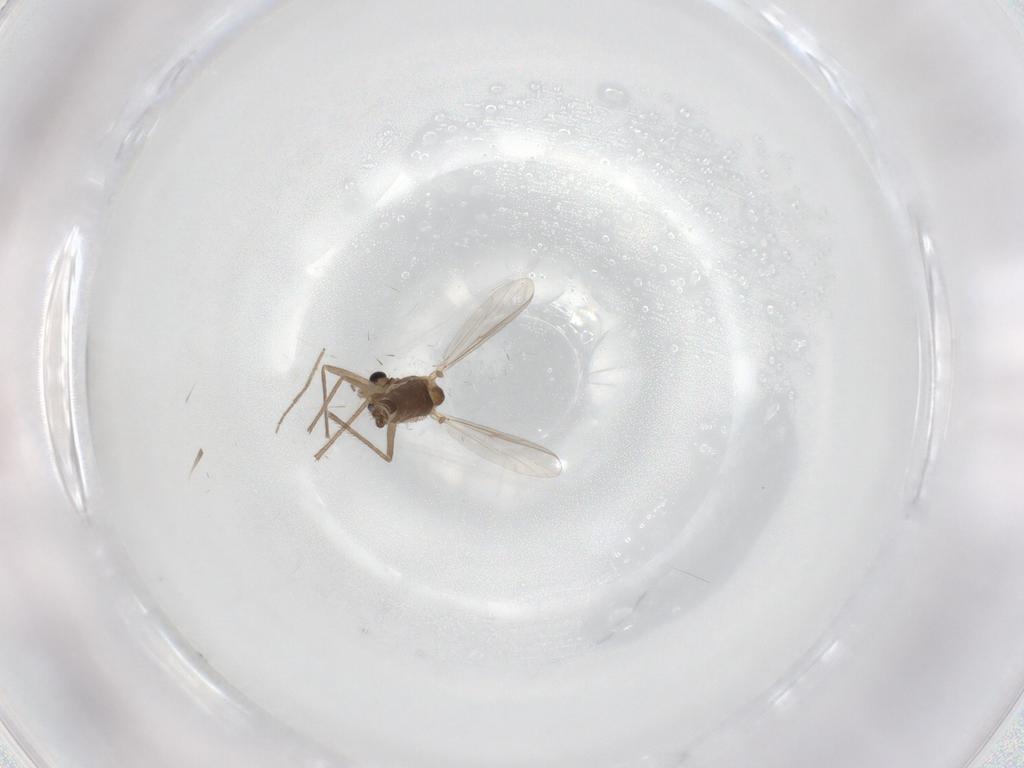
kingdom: Animalia
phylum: Arthropoda
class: Insecta
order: Diptera
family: Chironomidae
